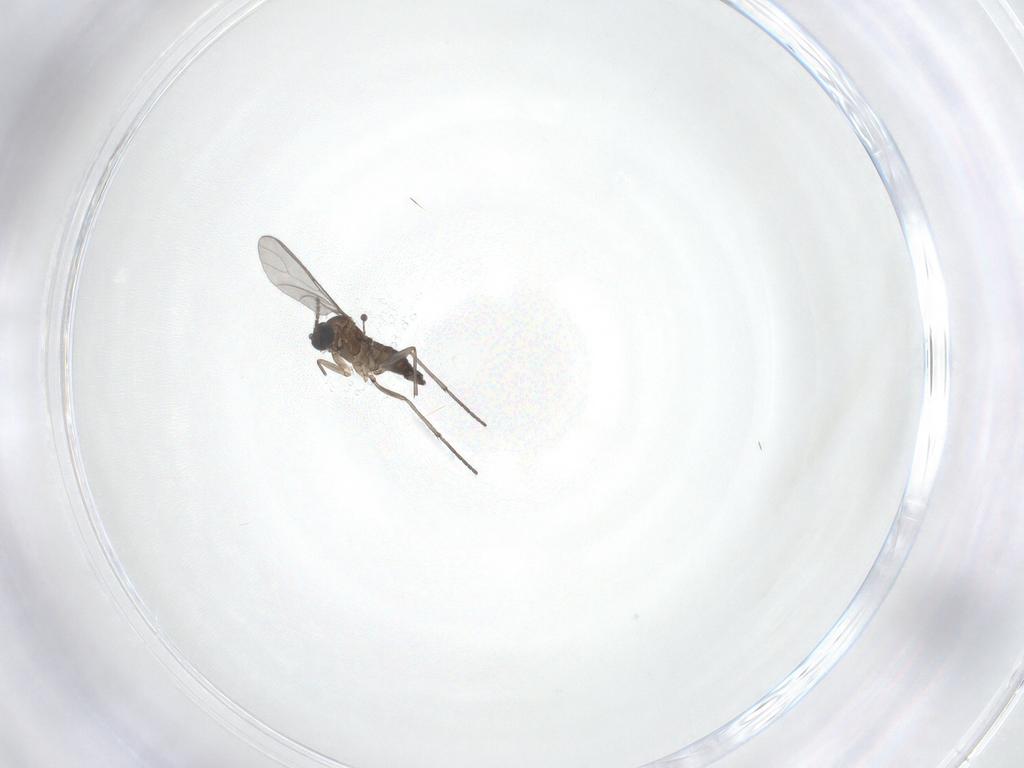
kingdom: Animalia
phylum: Arthropoda
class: Insecta
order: Diptera
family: Sciaridae
